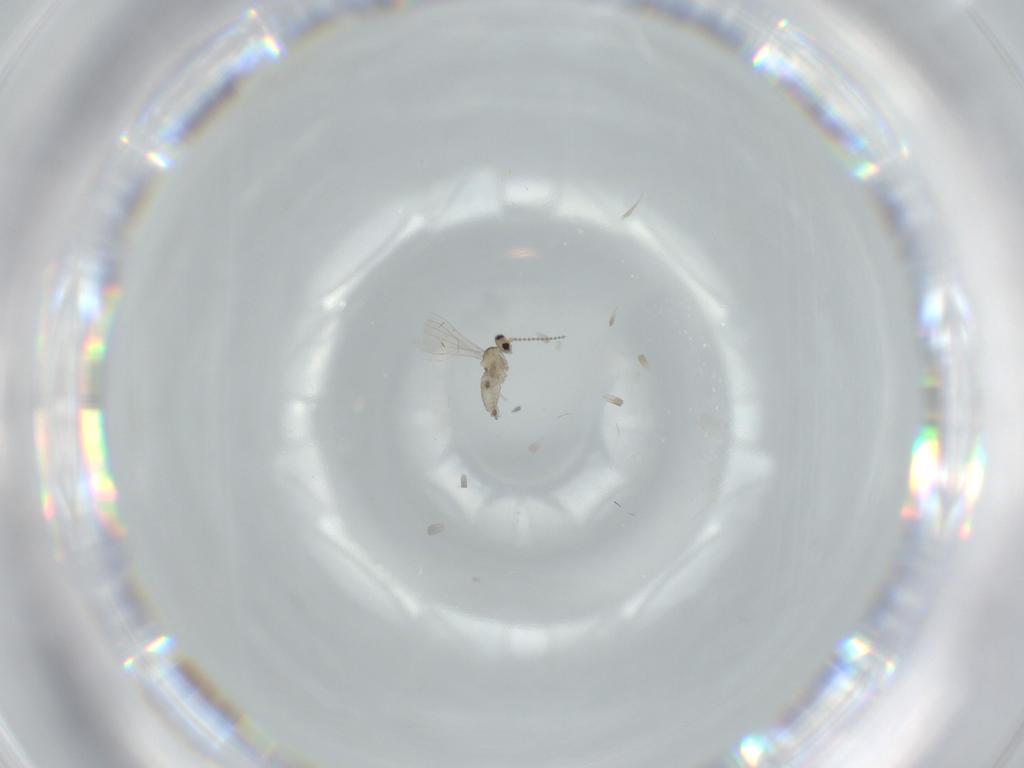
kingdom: Animalia
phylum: Arthropoda
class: Insecta
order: Diptera
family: Cecidomyiidae
